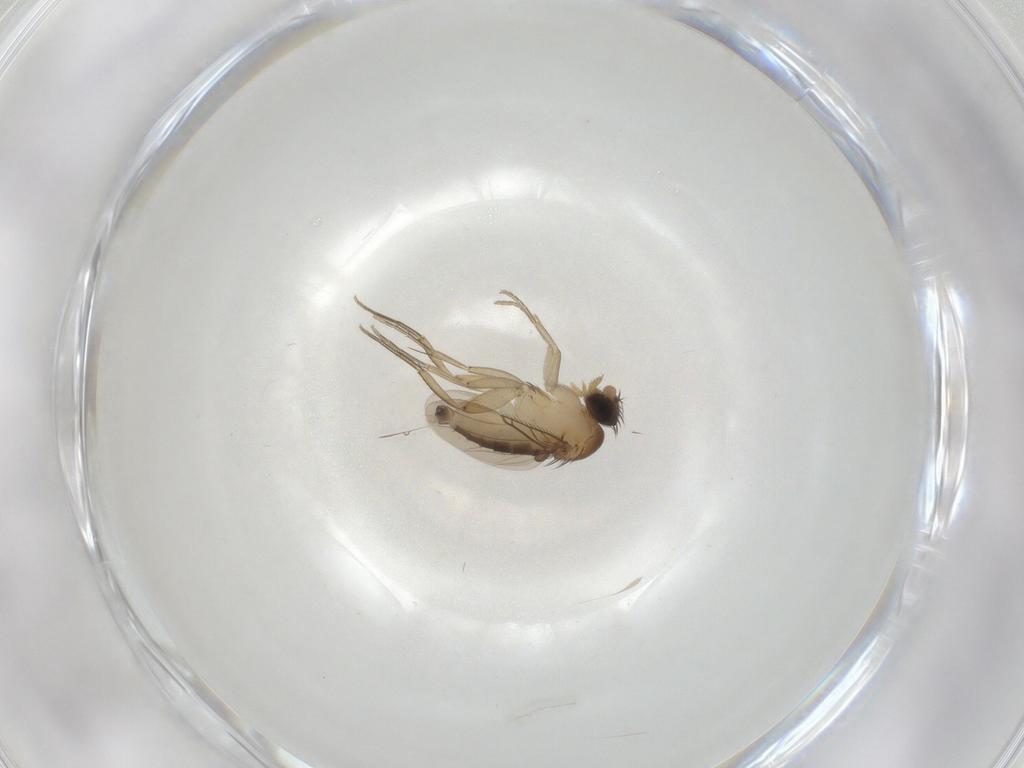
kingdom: Animalia
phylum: Arthropoda
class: Insecta
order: Diptera
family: Phoridae
